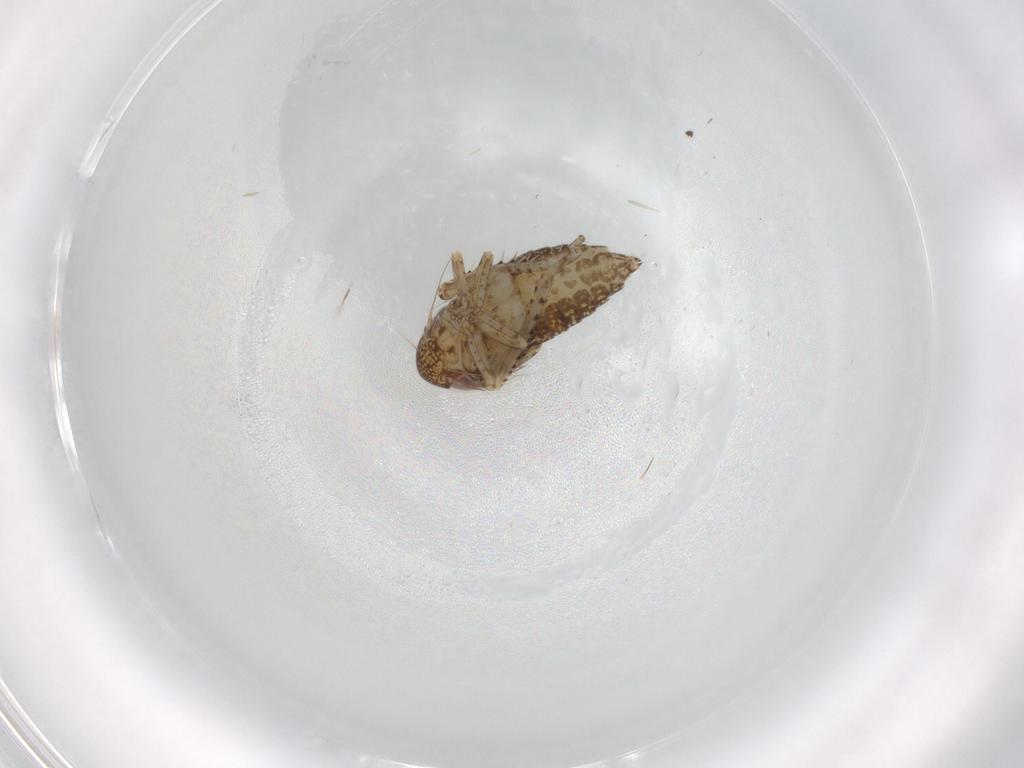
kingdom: Animalia
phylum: Arthropoda
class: Insecta
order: Hemiptera
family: Cicadellidae
